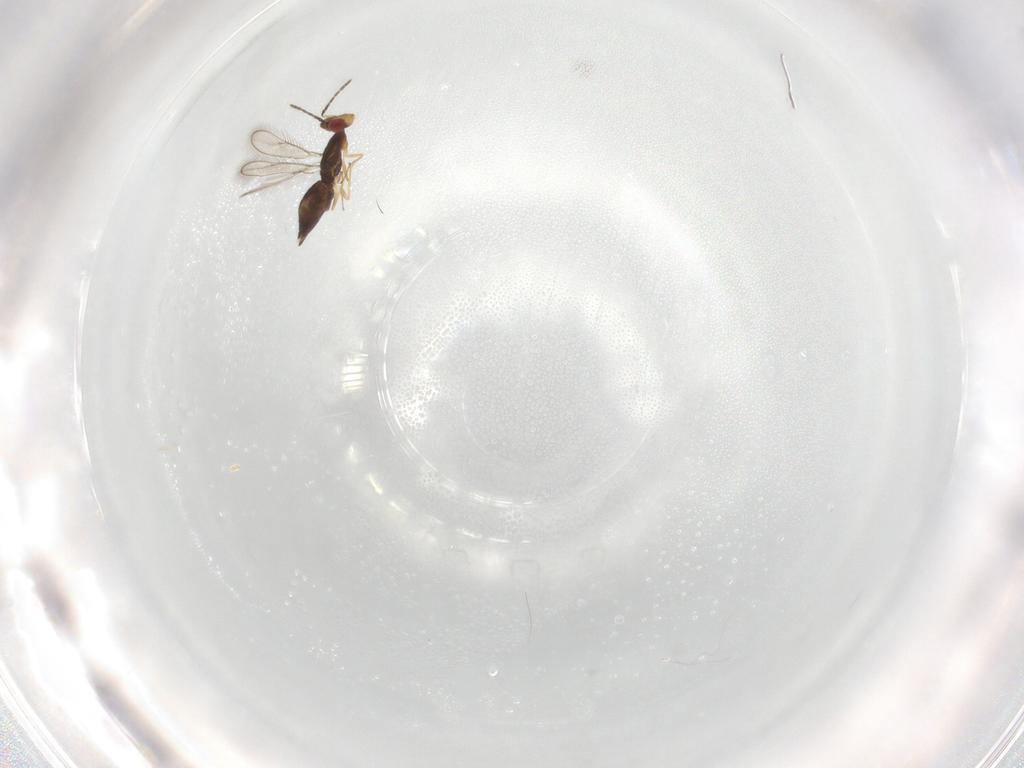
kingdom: Animalia
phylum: Arthropoda
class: Insecta
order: Hymenoptera
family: Eulophidae
